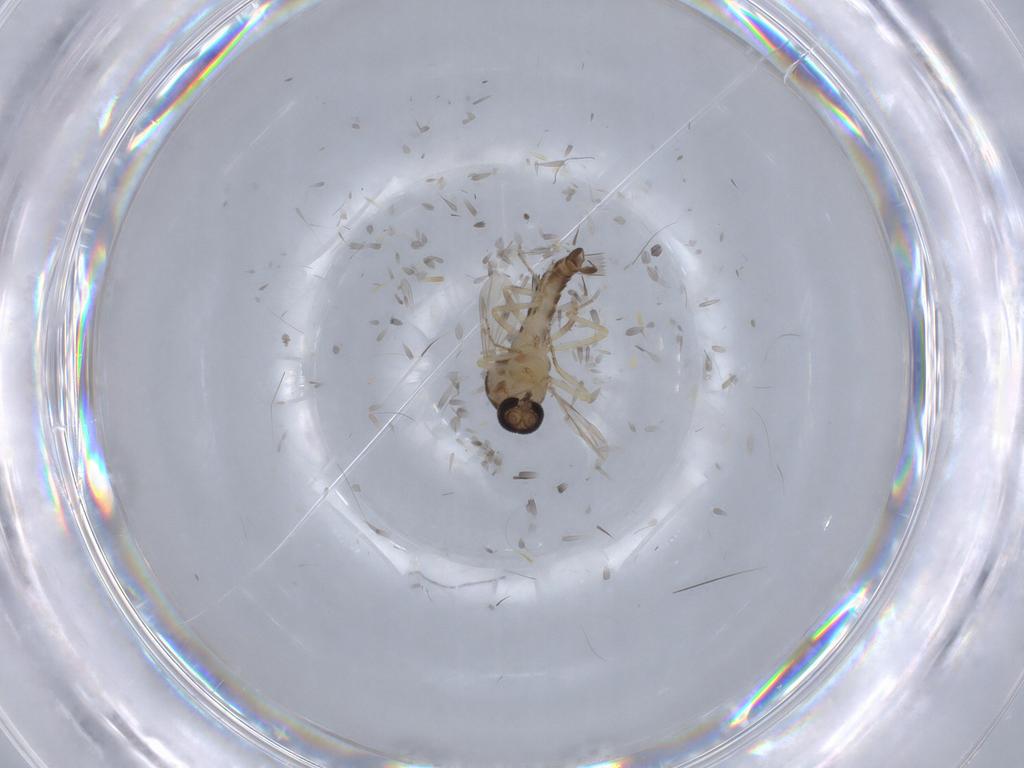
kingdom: Animalia
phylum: Arthropoda
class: Insecta
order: Diptera
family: Ceratopogonidae
